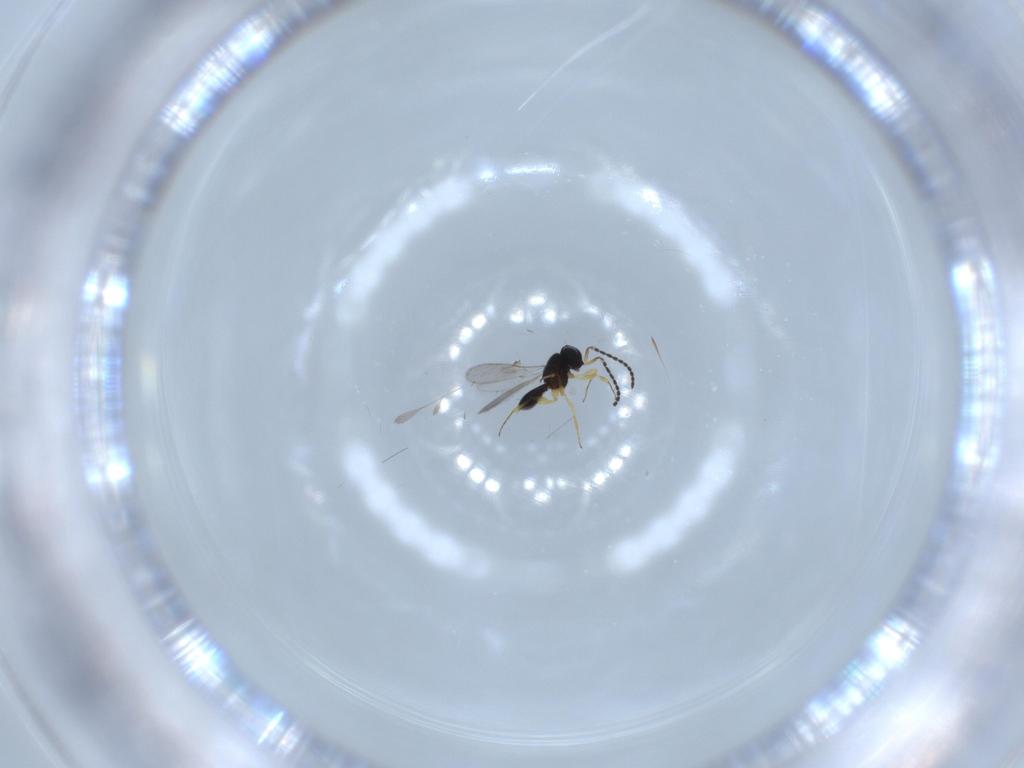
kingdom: Animalia
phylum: Arthropoda
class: Insecta
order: Hymenoptera
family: Scelionidae
